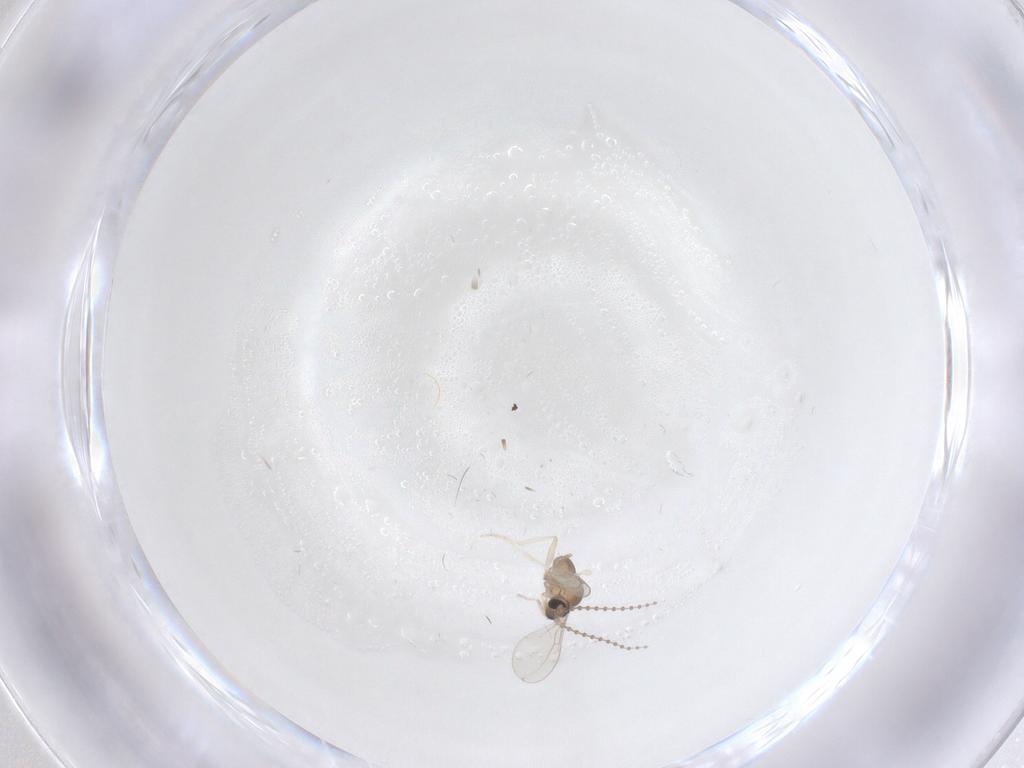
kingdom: Animalia
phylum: Arthropoda
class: Insecta
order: Diptera
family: Cecidomyiidae
